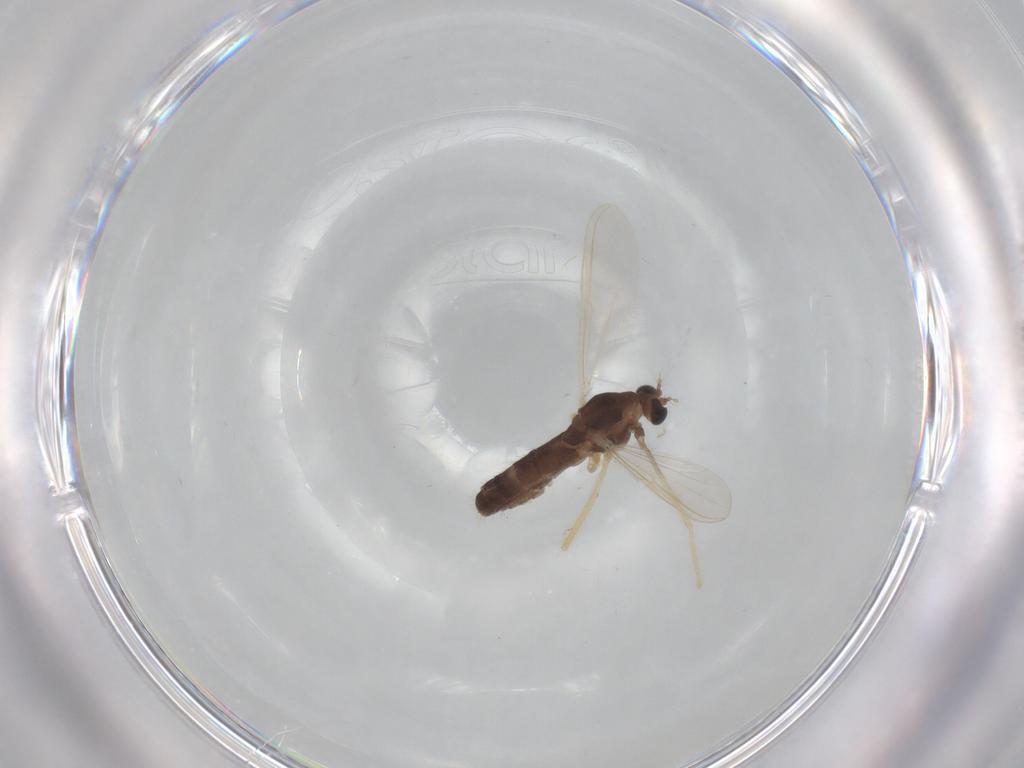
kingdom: Animalia
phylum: Arthropoda
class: Insecta
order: Diptera
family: Chironomidae
